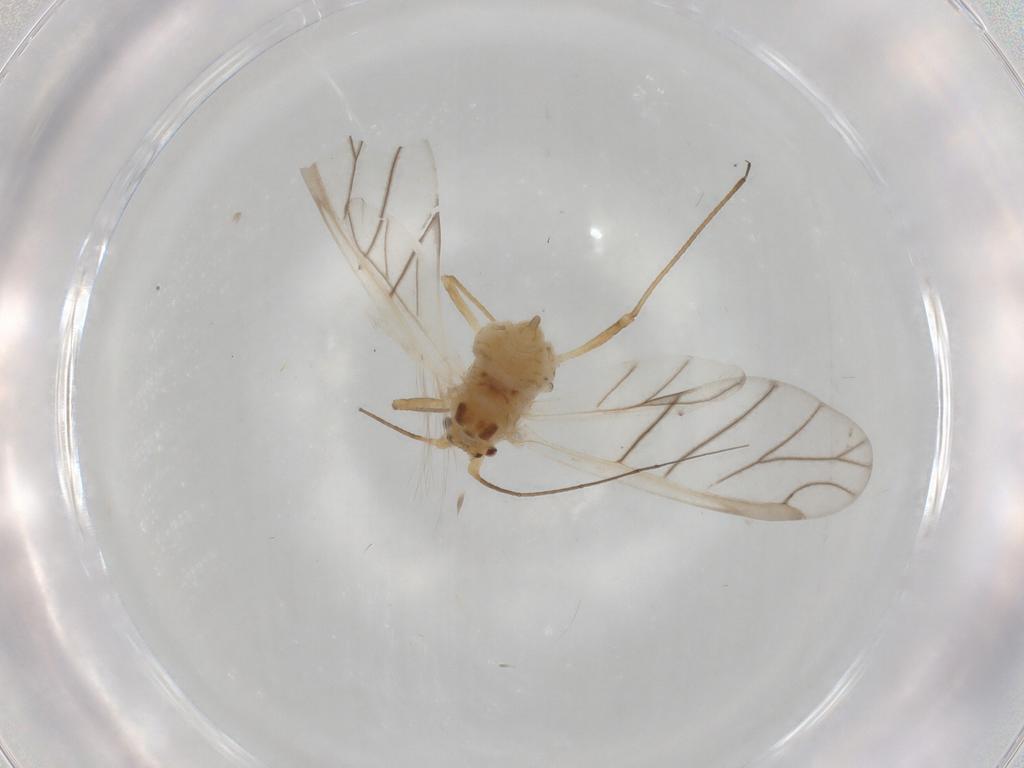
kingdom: Animalia
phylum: Arthropoda
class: Insecta
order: Hemiptera
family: Aphididae
